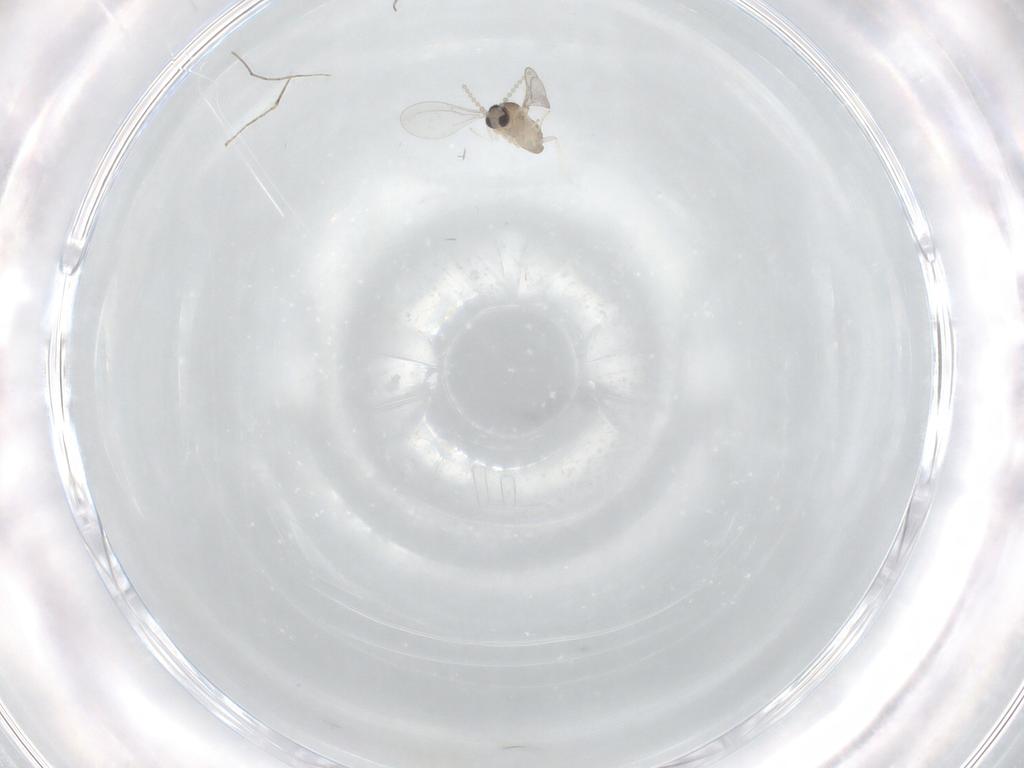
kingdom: Animalia
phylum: Arthropoda
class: Insecta
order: Diptera
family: Cecidomyiidae
